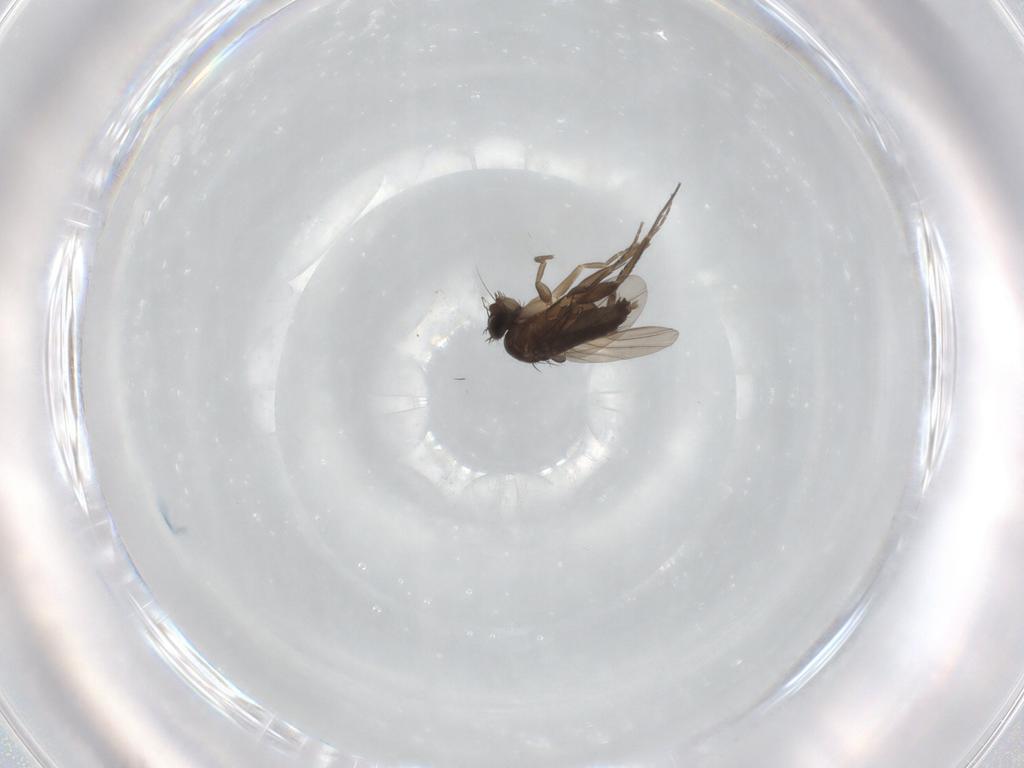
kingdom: Animalia
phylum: Arthropoda
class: Insecta
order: Diptera
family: Phoridae
